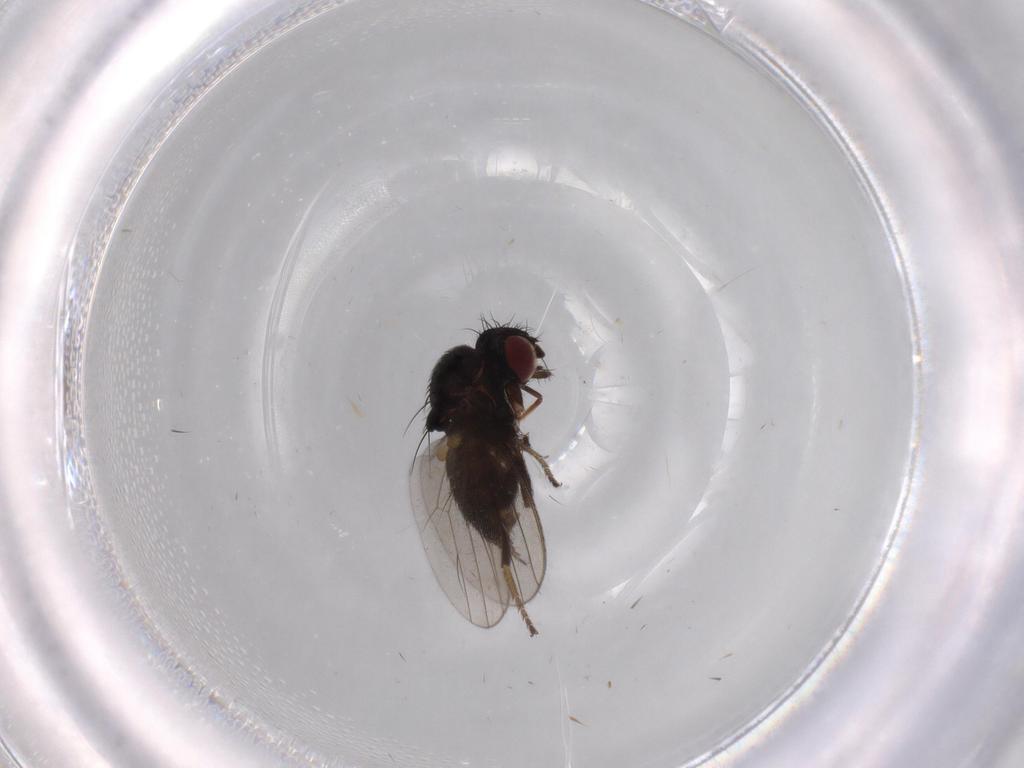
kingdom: Animalia
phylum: Arthropoda
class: Insecta
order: Diptera
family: Milichiidae
